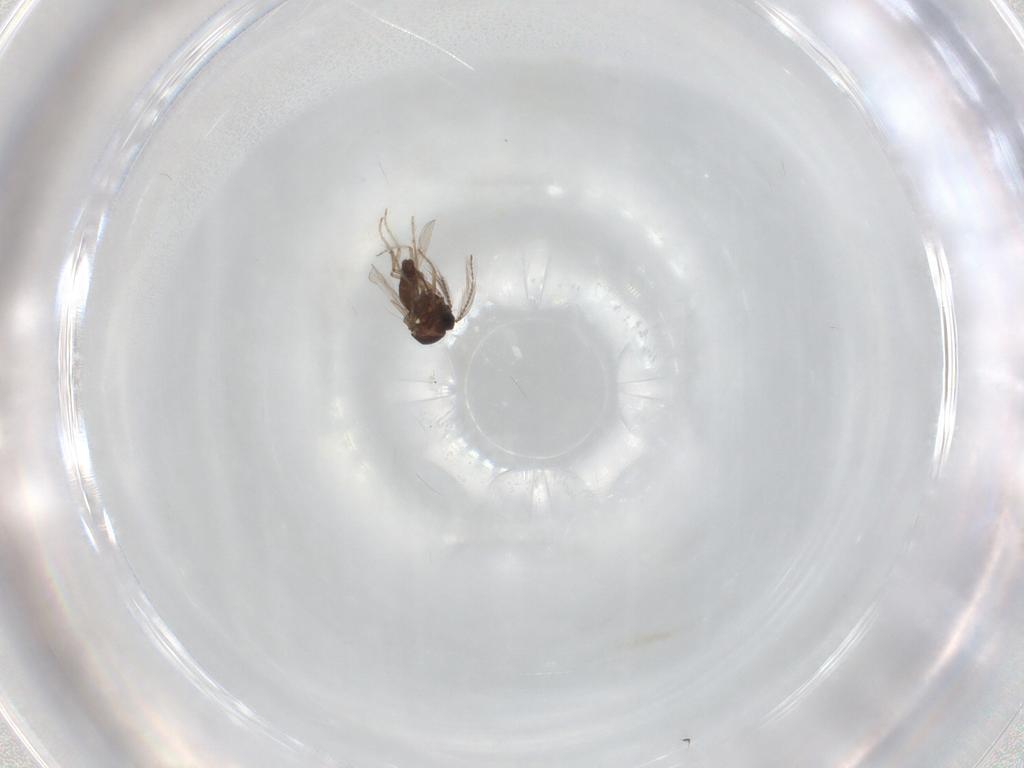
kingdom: Animalia
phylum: Arthropoda
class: Insecta
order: Diptera
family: Ceratopogonidae
